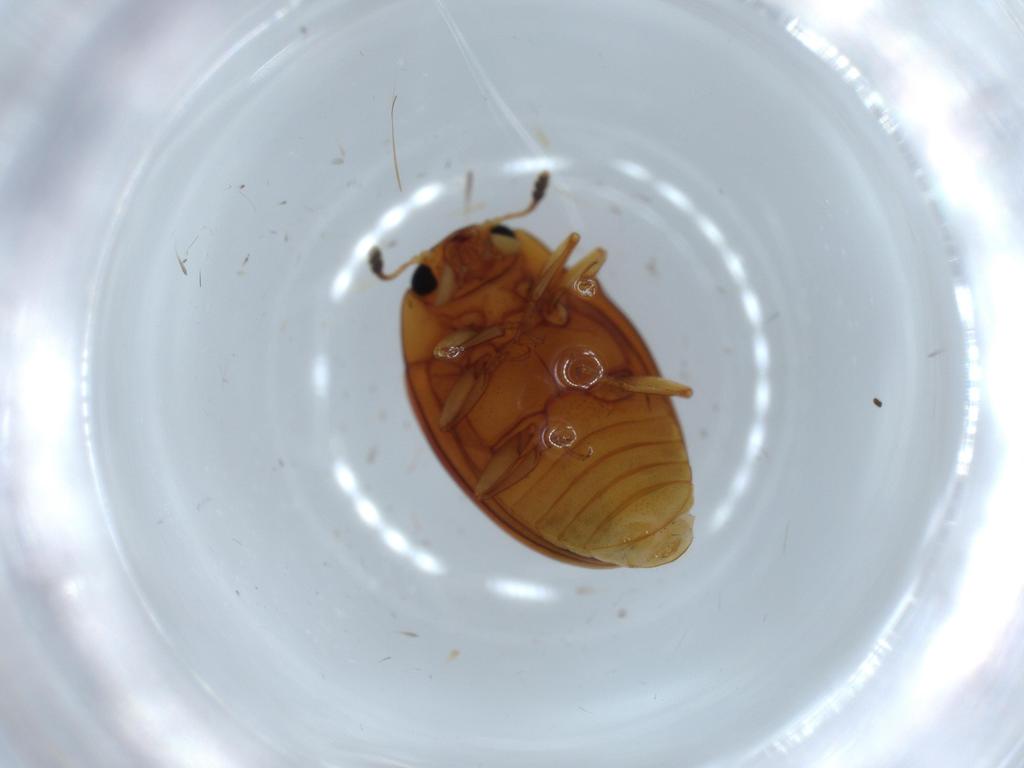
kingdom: Animalia
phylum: Arthropoda
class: Insecta
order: Coleoptera
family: Erotylidae
